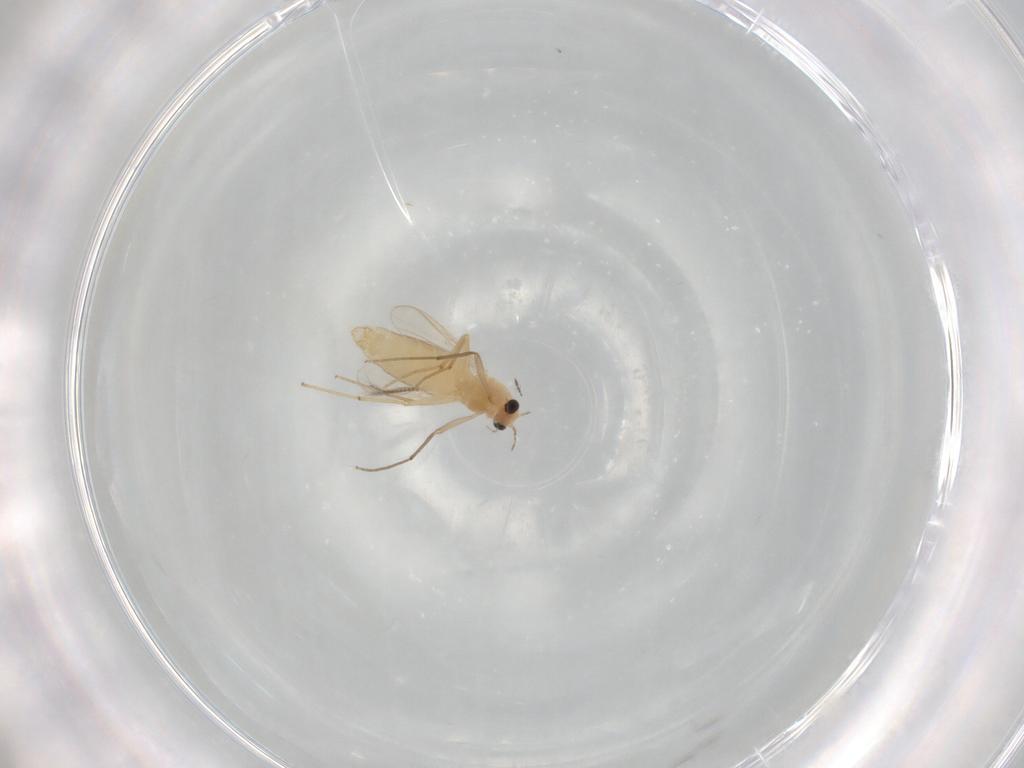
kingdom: Animalia
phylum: Arthropoda
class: Insecta
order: Diptera
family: Chironomidae
